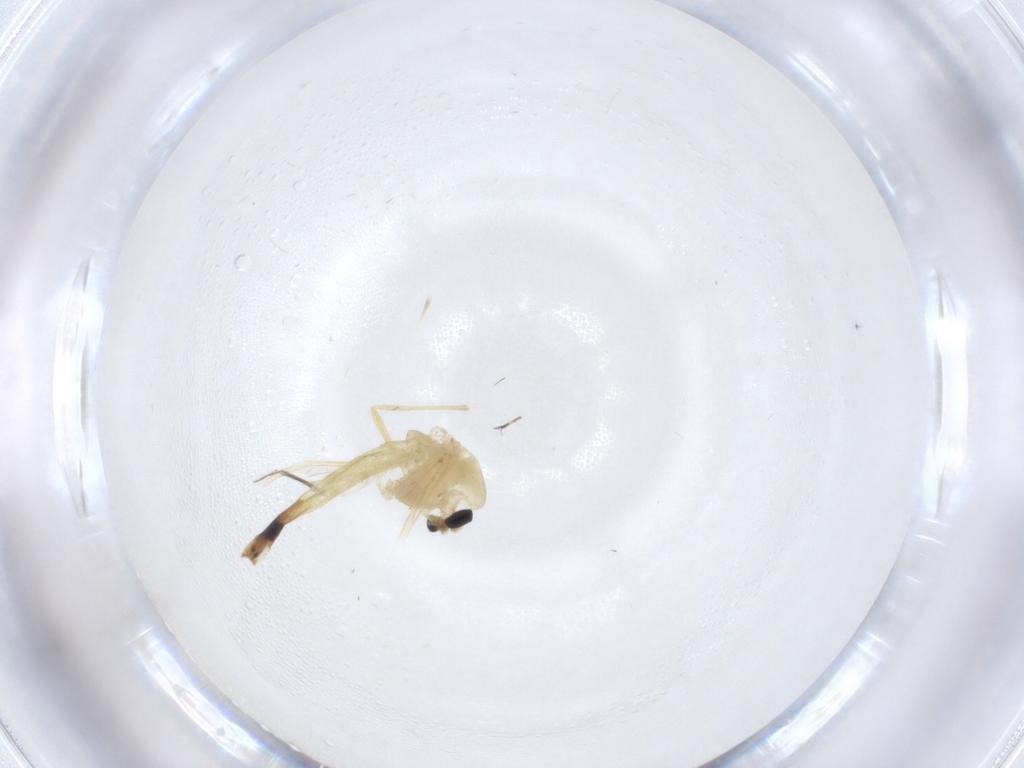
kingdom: Animalia
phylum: Arthropoda
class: Insecta
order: Diptera
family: Chironomidae
